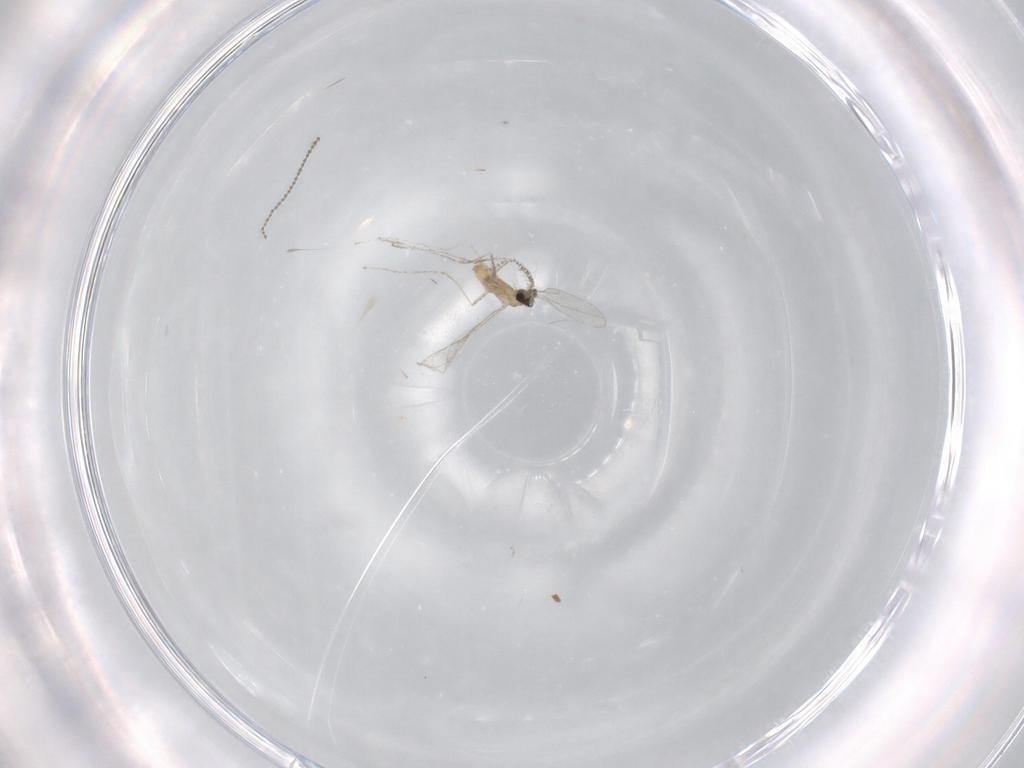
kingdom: Animalia
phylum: Arthropoda
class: Insecta
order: Diptera
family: Cecidomyiidae
